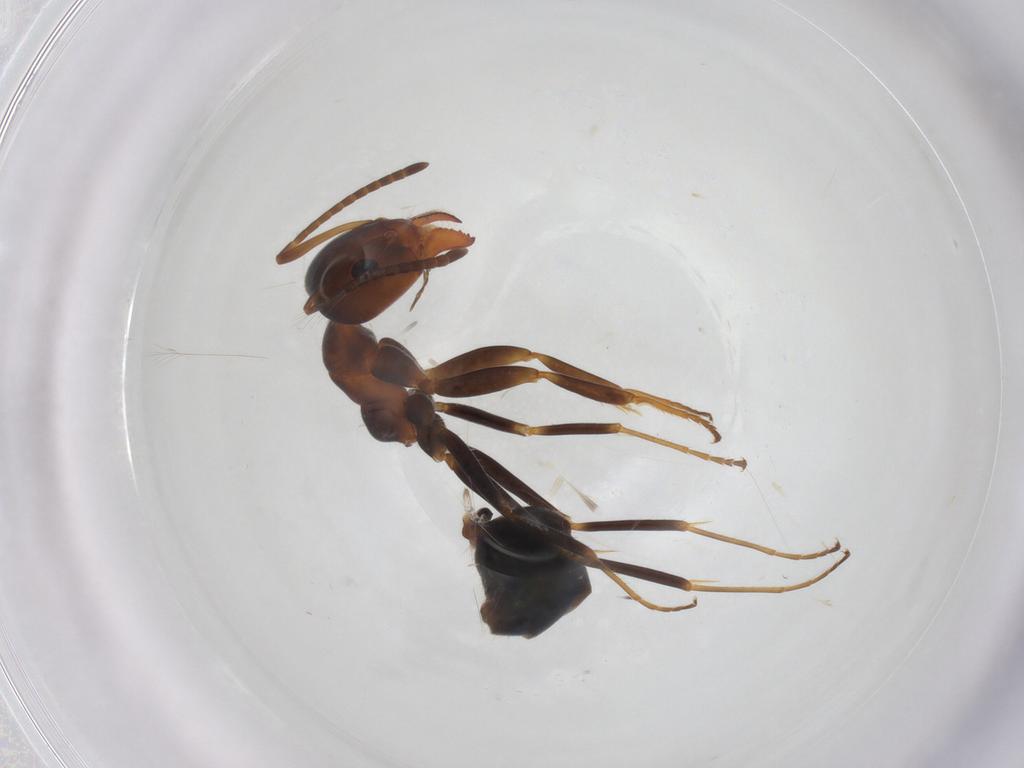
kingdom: Animalia
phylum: Arthropoda
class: Insecta
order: Hymenoptera
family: Formicidae
